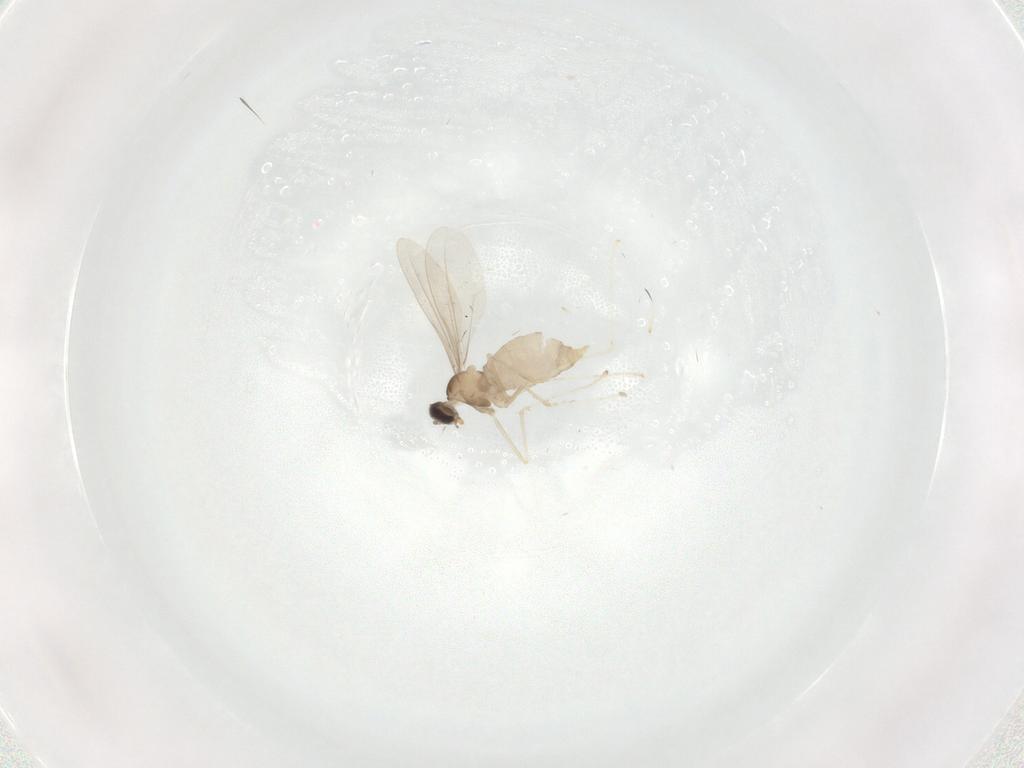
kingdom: Animalia
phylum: Arthropoda
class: Insecta
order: Diptera
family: Cecidomyiidae
